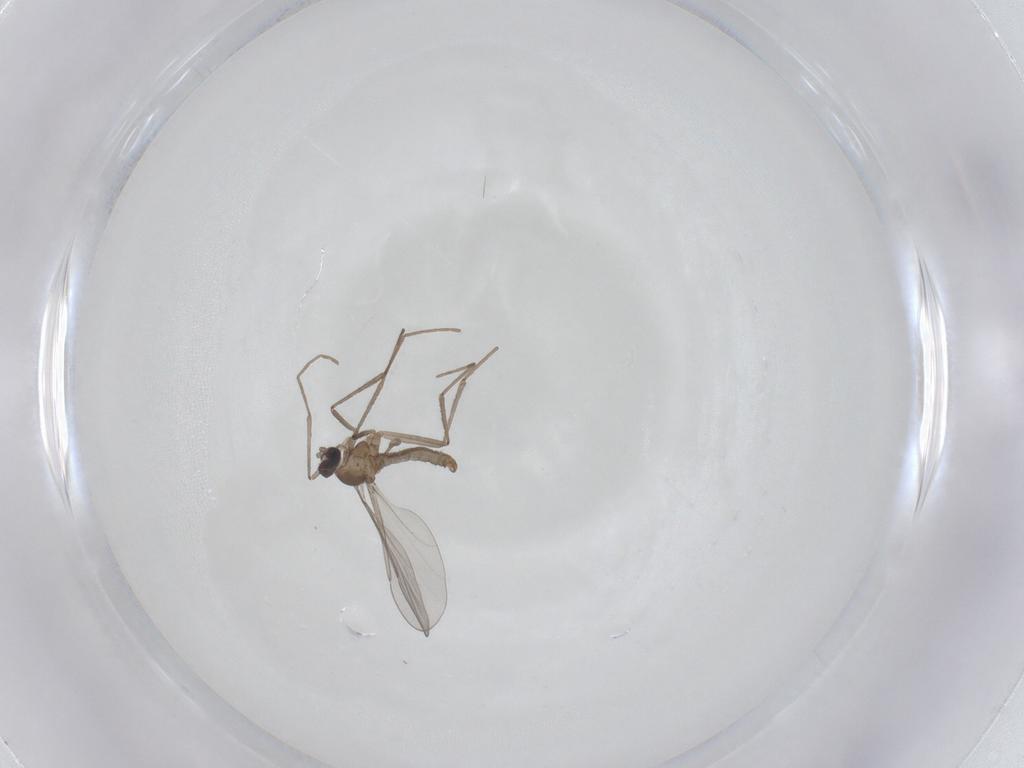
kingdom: Animalia
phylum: Arthropoda
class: Insecta
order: Diptera
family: Cecidomyiidae
